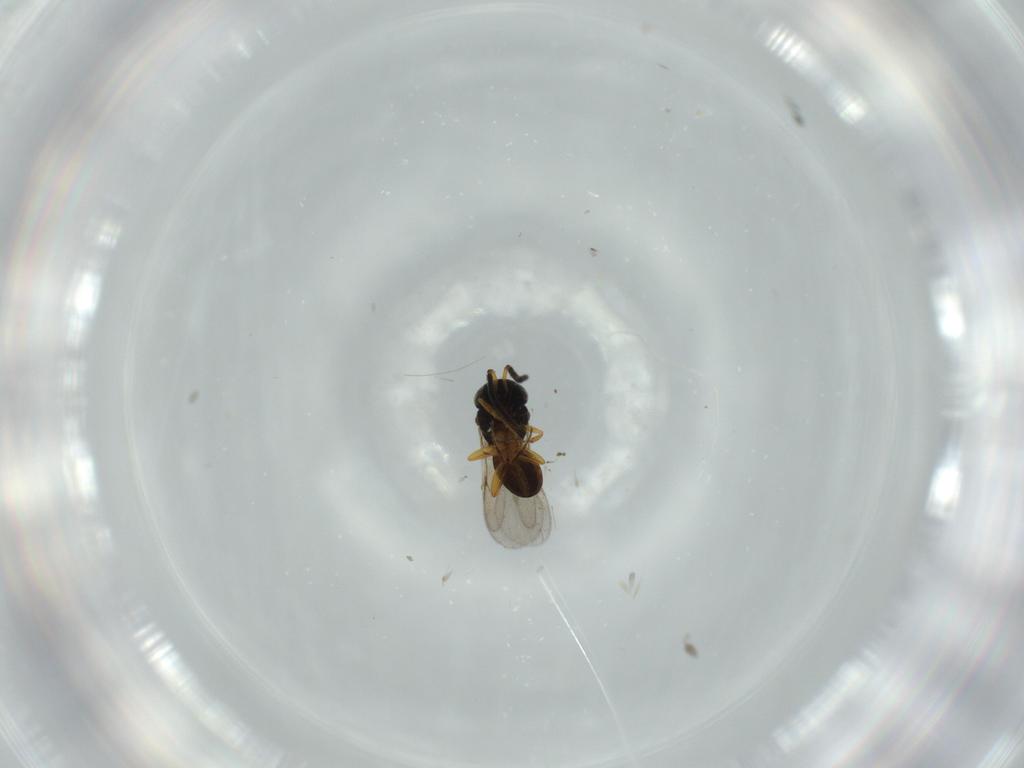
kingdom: Animalia
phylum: Arthropoda
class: Insecta
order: Coleoptera
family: Curculionidae
